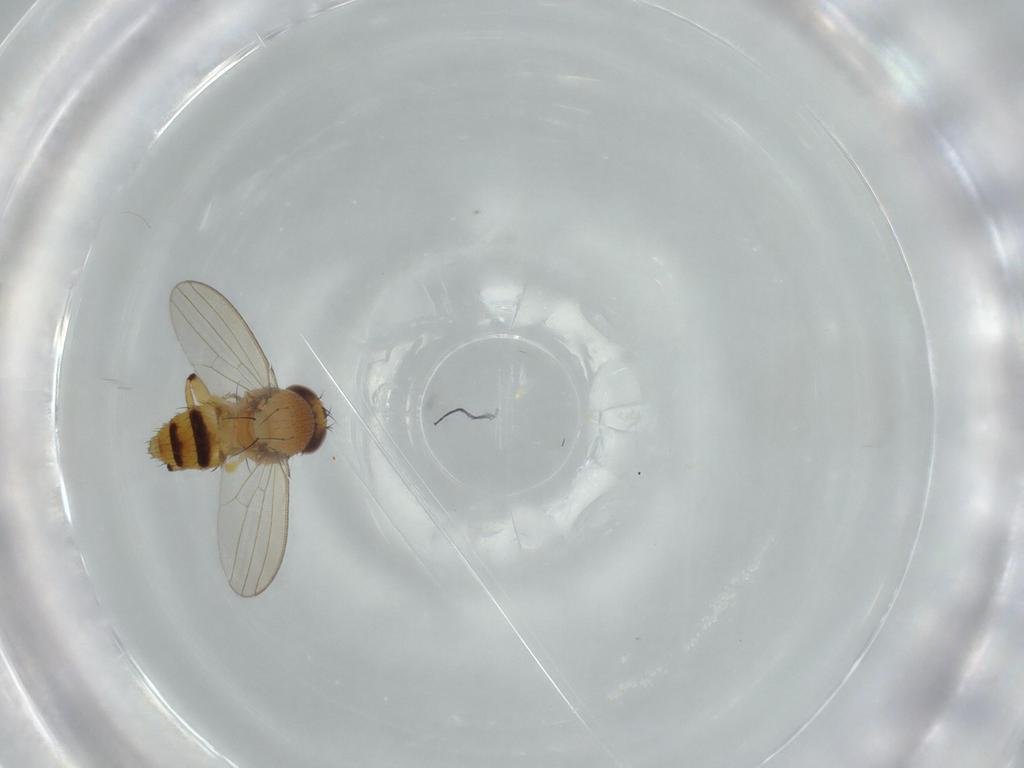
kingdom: Animalia
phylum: Arthropoda
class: Insecta
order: Diptera
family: Milichiidae
